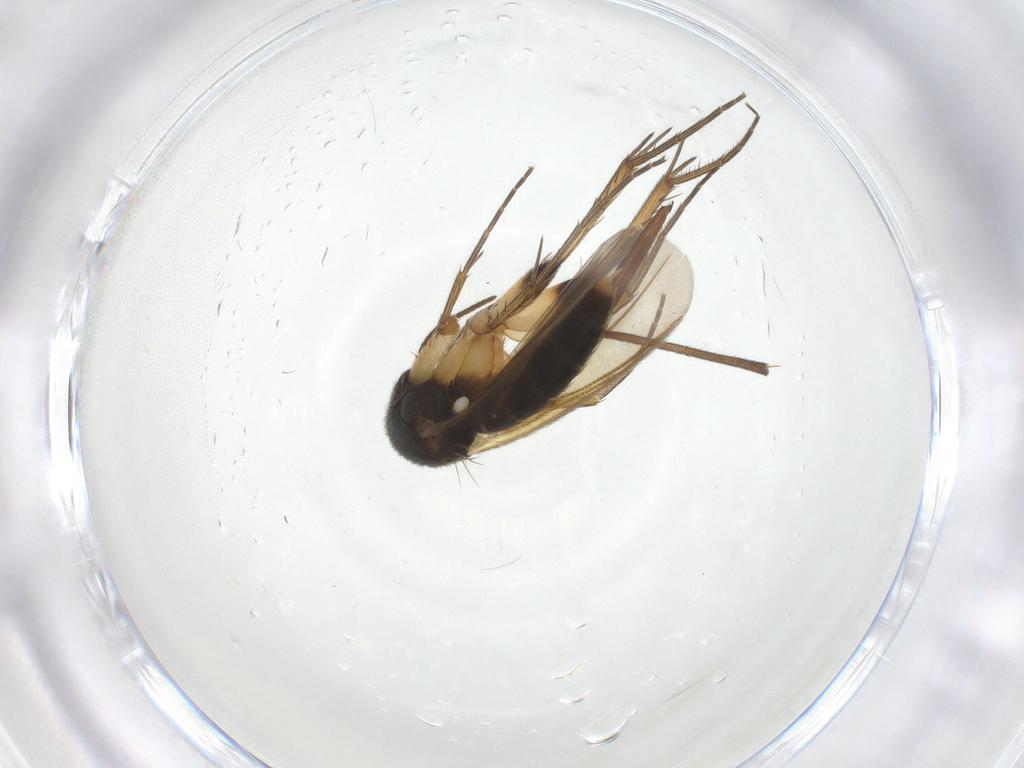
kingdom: Animalia
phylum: Arthropoda
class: Insecta
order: Diptera
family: Sciaridae
